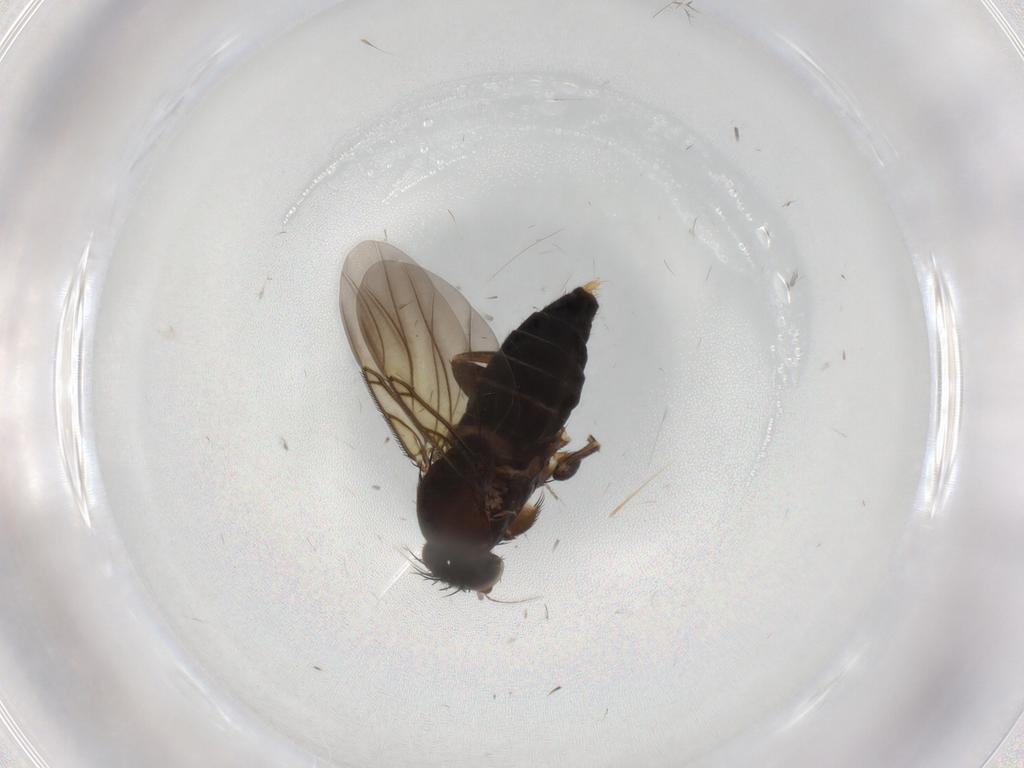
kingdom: Animalia
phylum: Arthropoda
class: Insecta
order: Diptera
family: Phoridae
